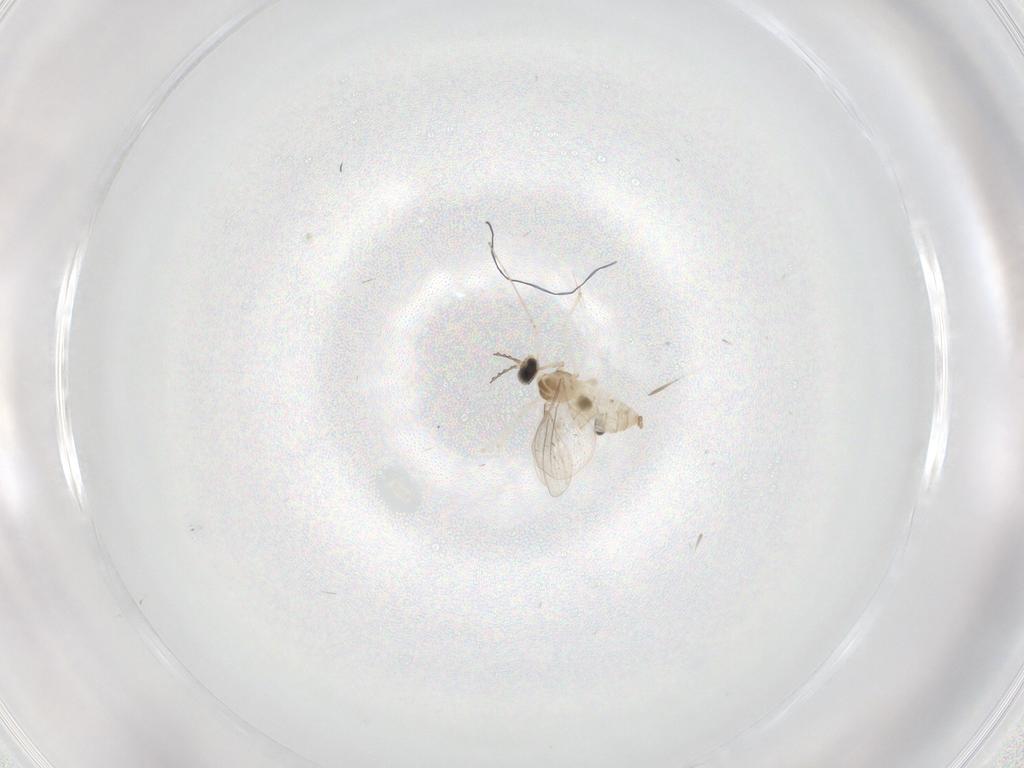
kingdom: Animalia
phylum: Arthropoda
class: Insecta
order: Diptera
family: Cecidomyiidae
